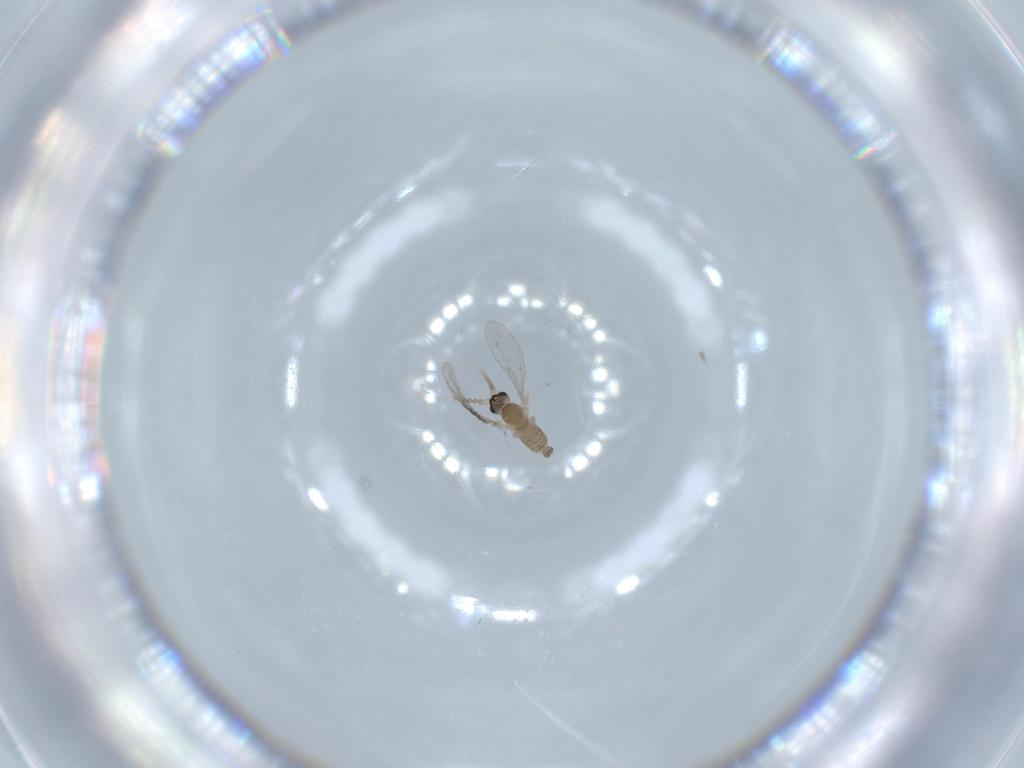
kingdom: Animalia
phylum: Arthropoda
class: Insecta
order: Diptera
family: Cecidomyiidae
